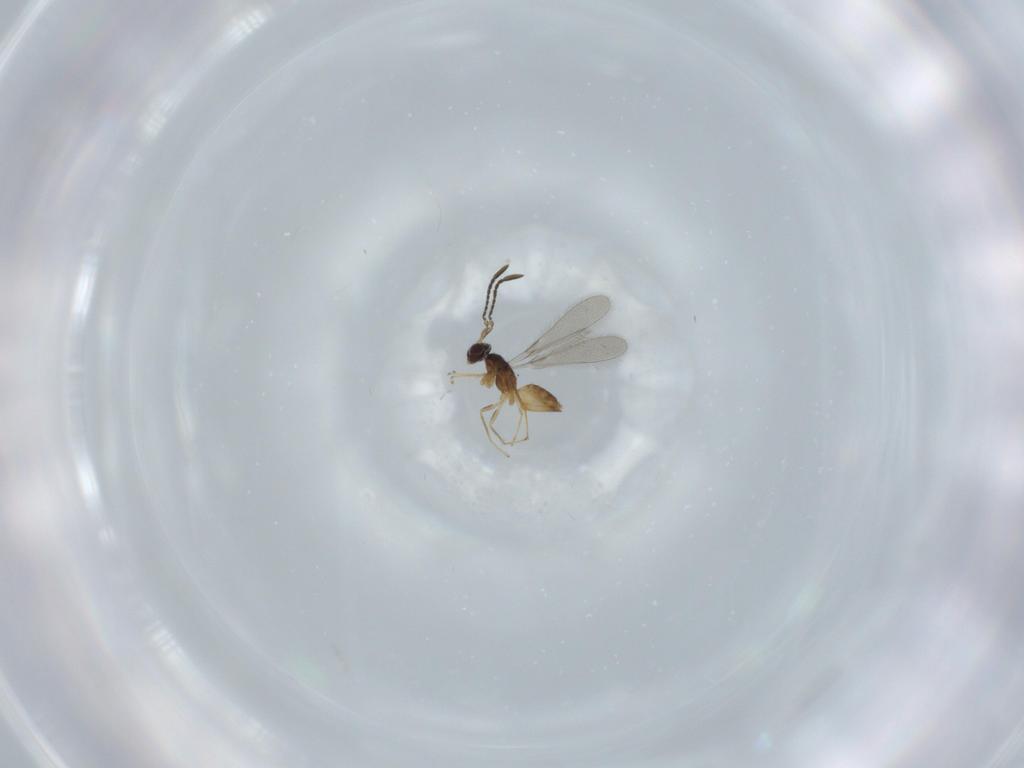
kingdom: Animalia
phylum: Arthropoda
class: Insecta
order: Hymenoptera
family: Mymaridae
